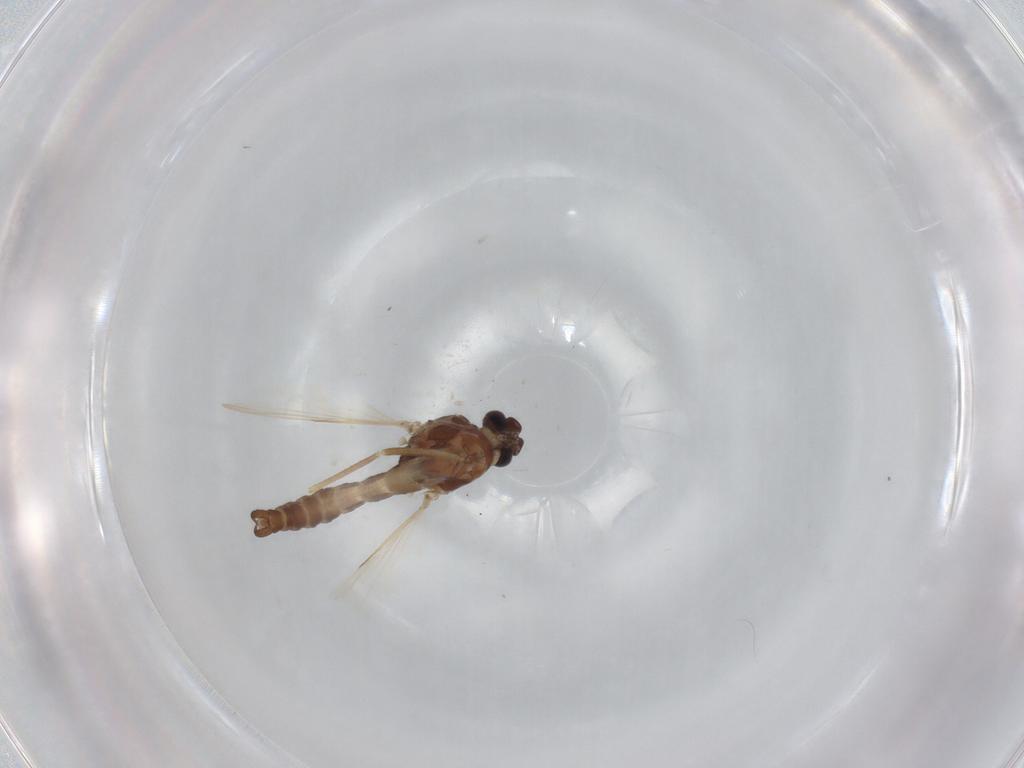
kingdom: Animalia
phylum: Arthropoda
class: Insecta
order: Diptera
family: Ceratopogonidae
